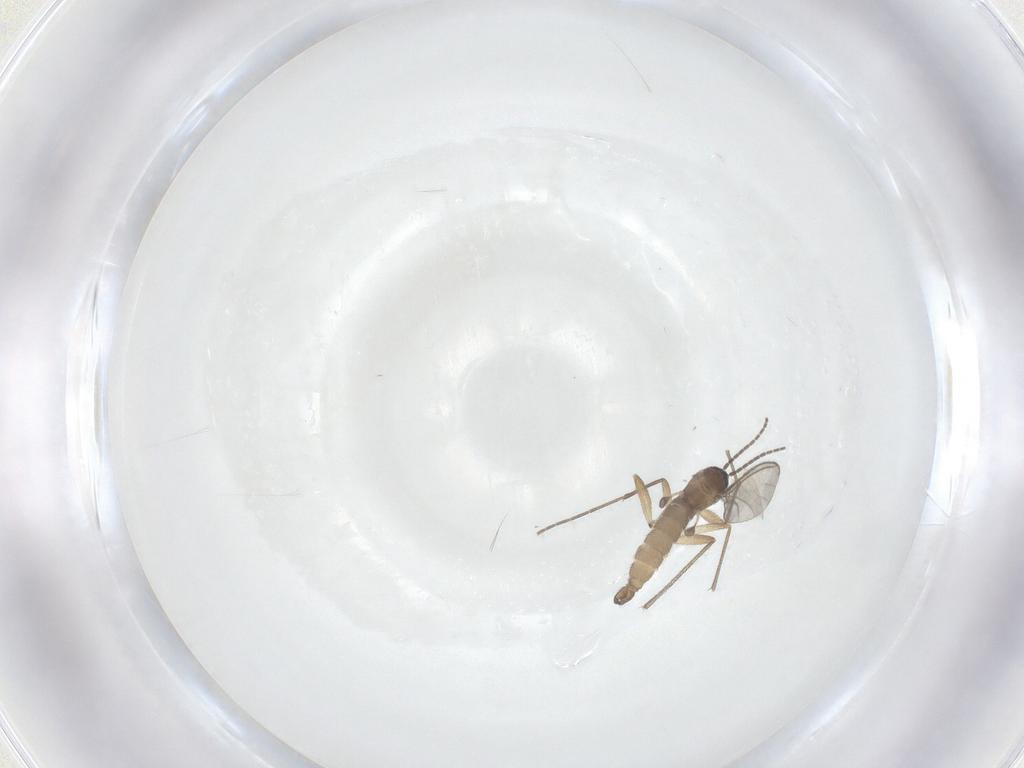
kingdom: Animalia
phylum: Arthropoda
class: Insecta
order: Diptera
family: Sciaridae
